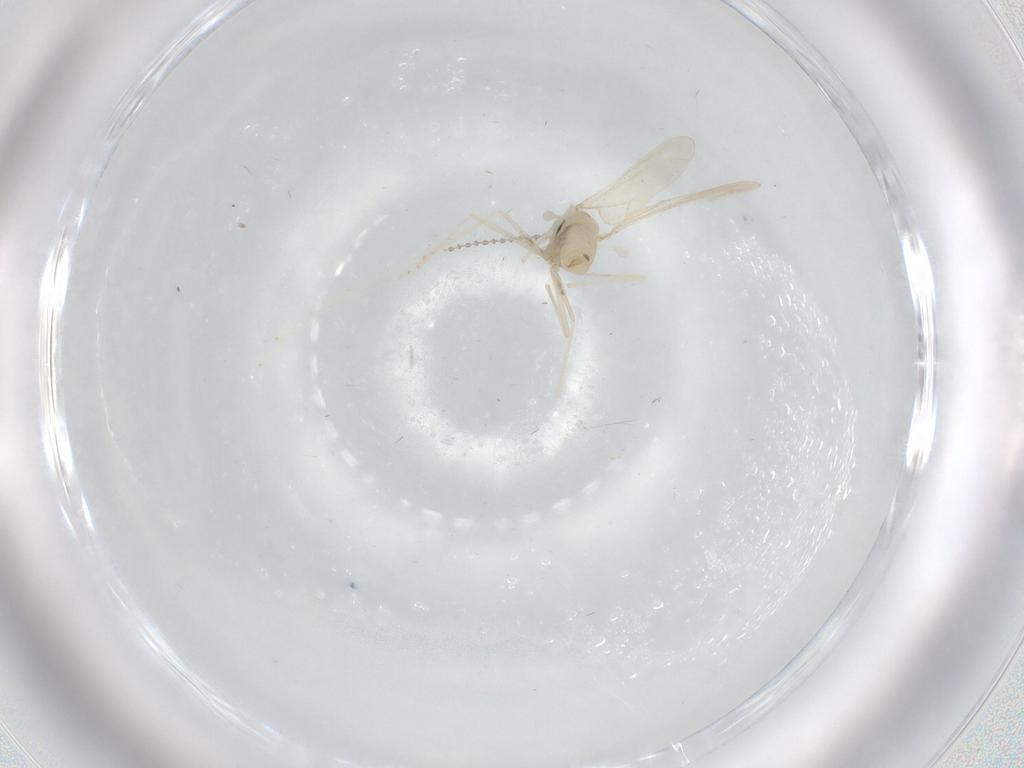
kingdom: Animalia
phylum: Arthropoda
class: Insecta
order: Diptera
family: Cecidomyiidae
